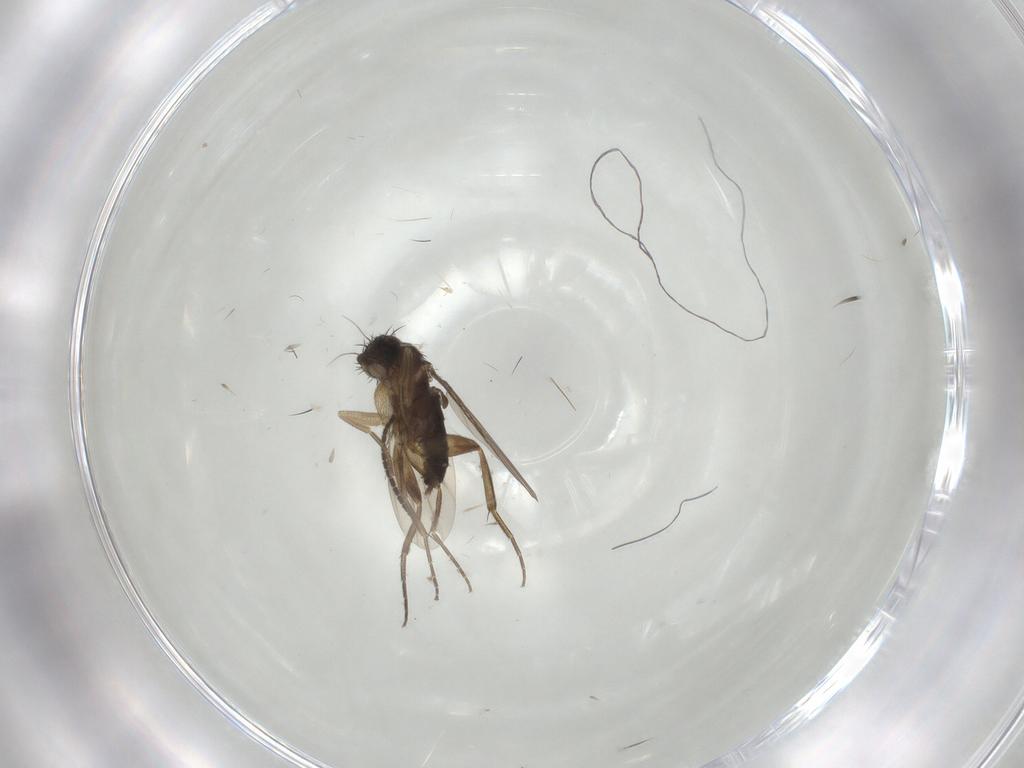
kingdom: Animalia
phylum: Arthropoda
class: Insecta
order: Diptera
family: Phoridae
